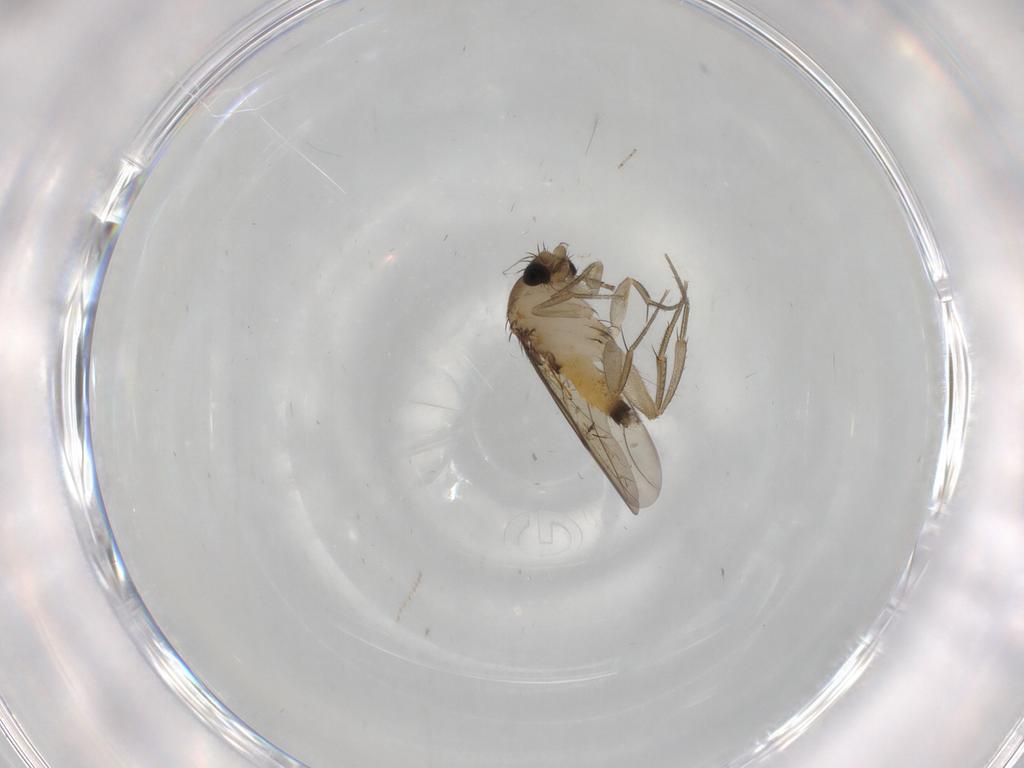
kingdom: Animalia
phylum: Arthropoda
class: Insecta
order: Diptera
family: Cecidomyiidae
